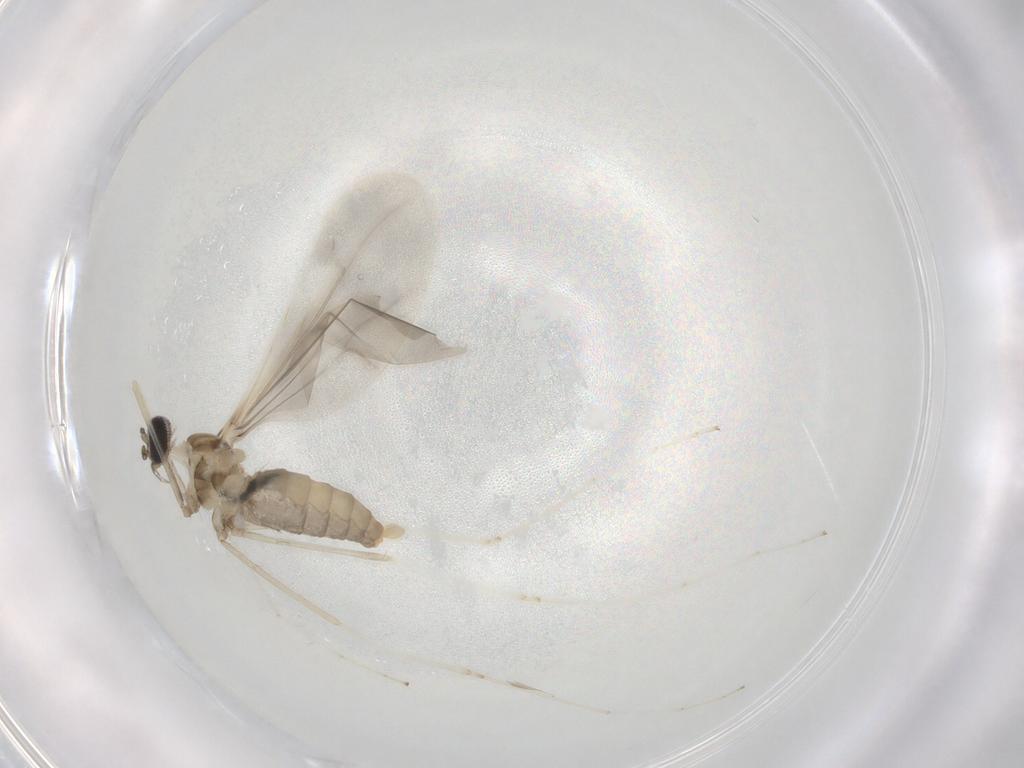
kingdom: Animalia
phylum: Arthropoda
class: Insecta
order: Diptera
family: Cecidomyiidae
